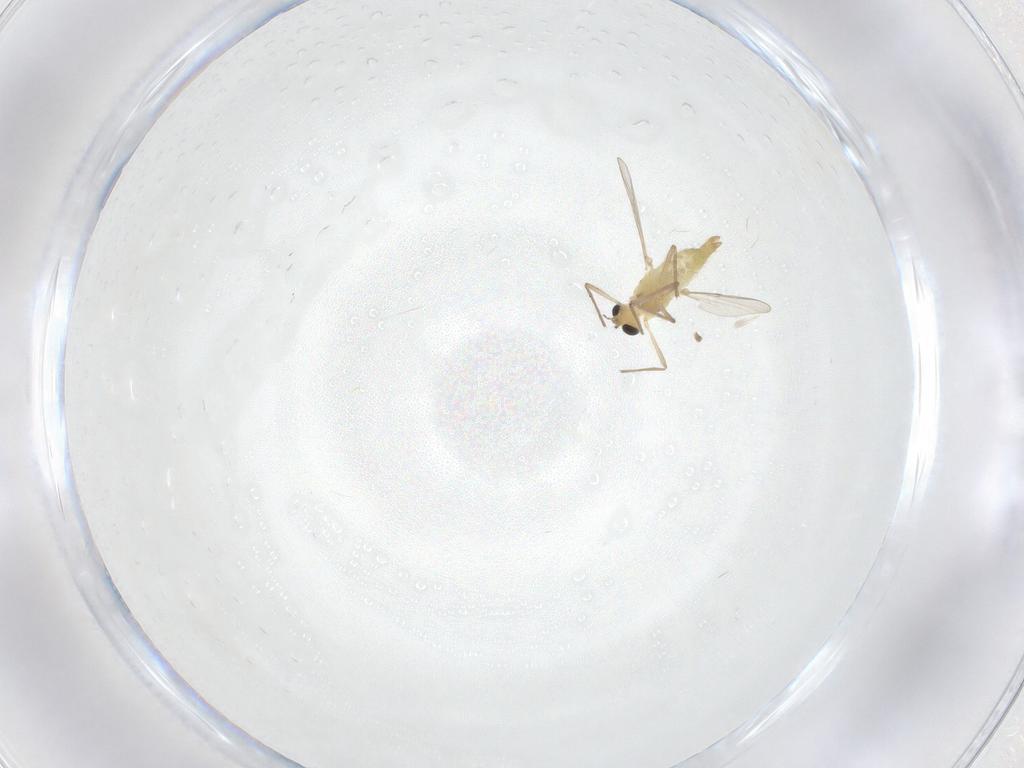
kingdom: Animalia
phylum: Arthropoda
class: Insecta
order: Diptera
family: Chironomidae
